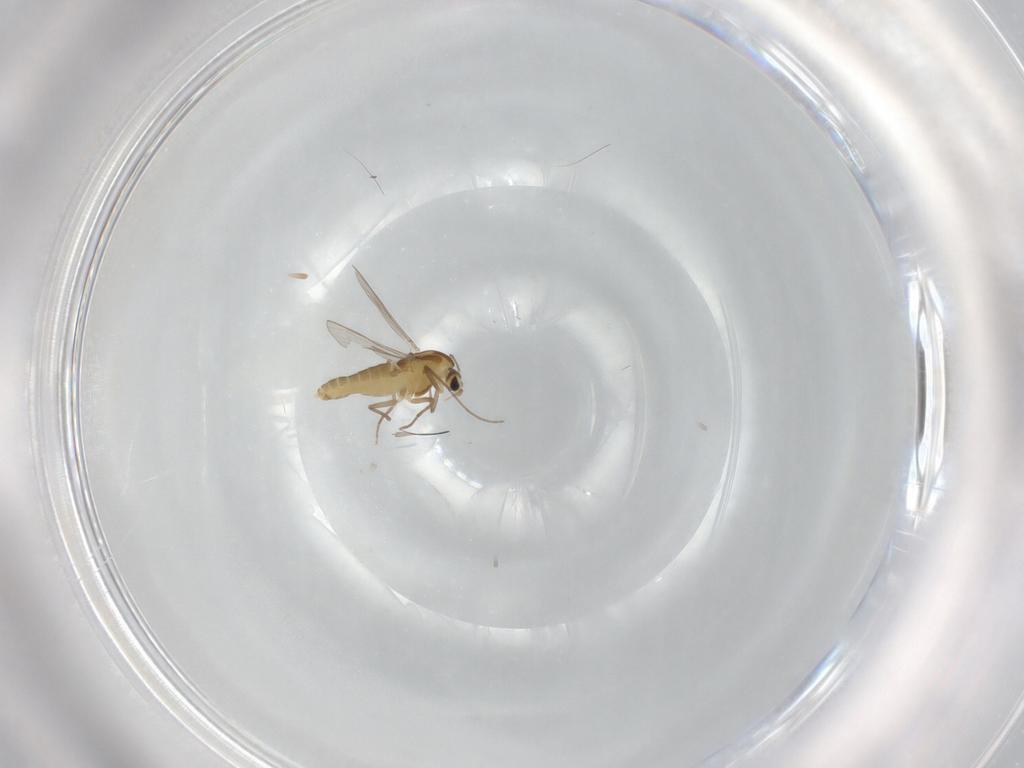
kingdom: Animalia
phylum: Arthropoda
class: Insecta
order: Diptera
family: Chironomidae
